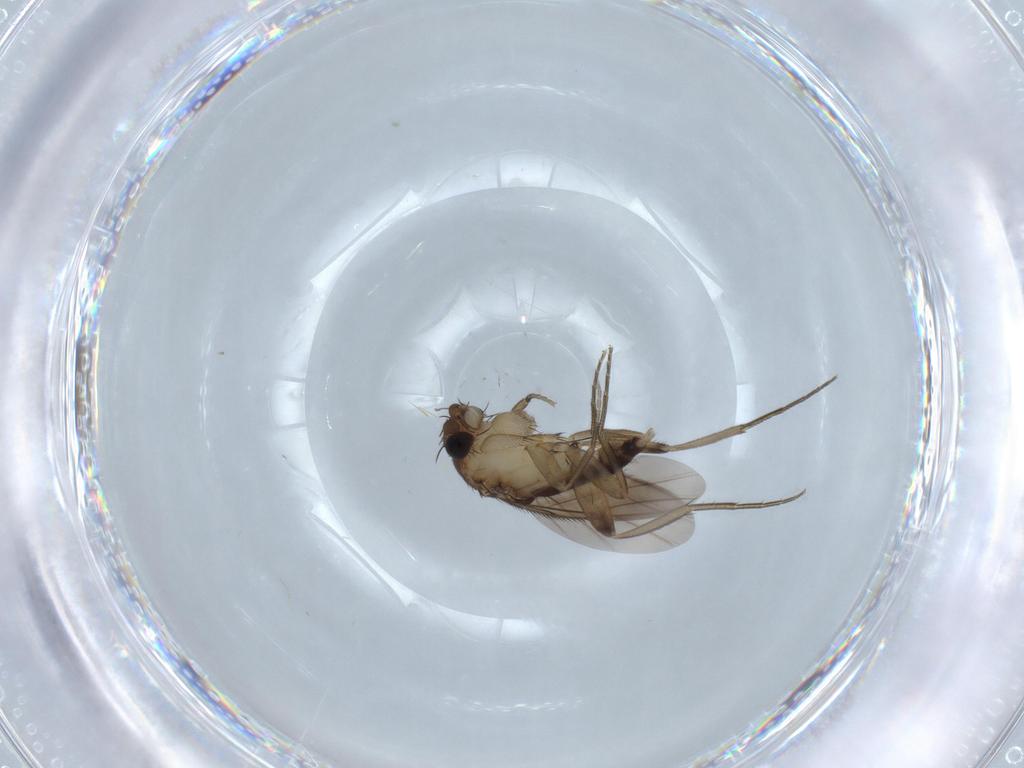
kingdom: Animalia
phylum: Arthropoda
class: Insecta
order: Diptera
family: Phoridae
